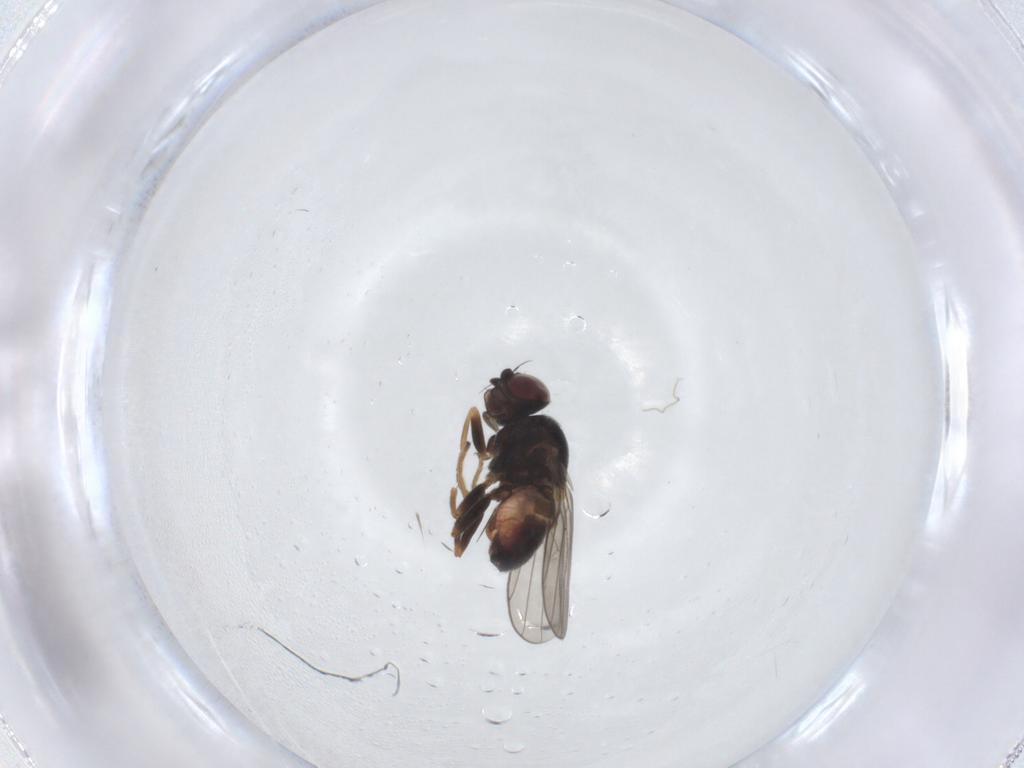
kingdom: Animalia
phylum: Arthropoda
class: Insecta
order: Diptera
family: Chloropidae
